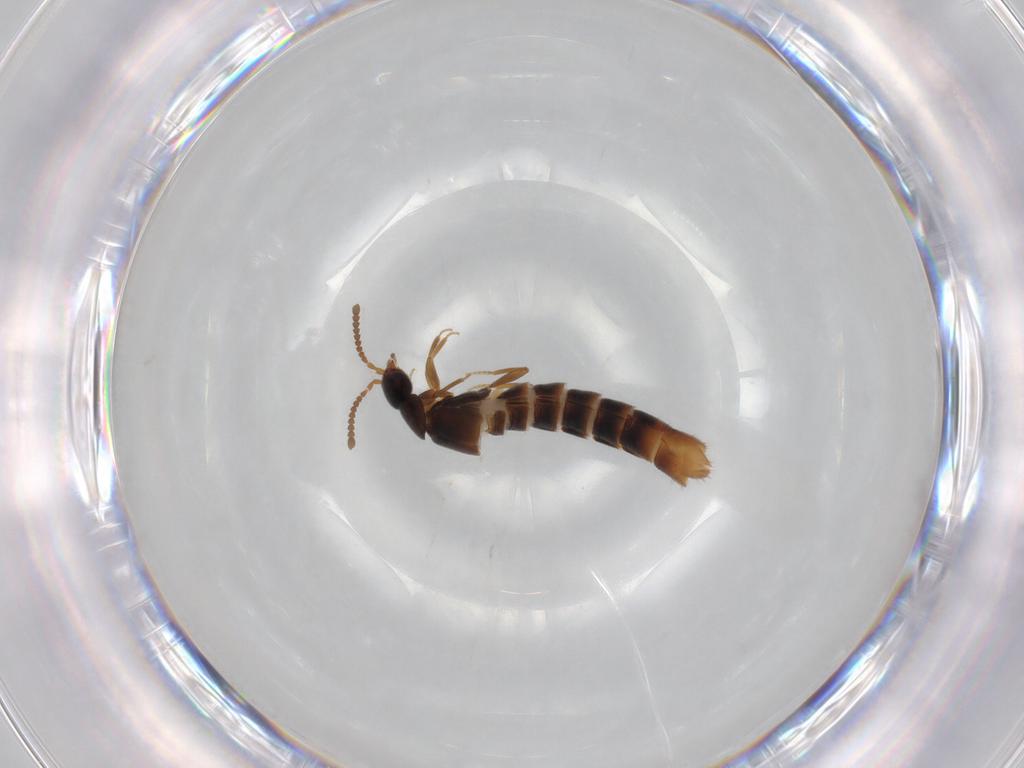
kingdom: Animalia
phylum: Arthropoda
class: Insecta
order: Coleoptera
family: Staphylinidae
